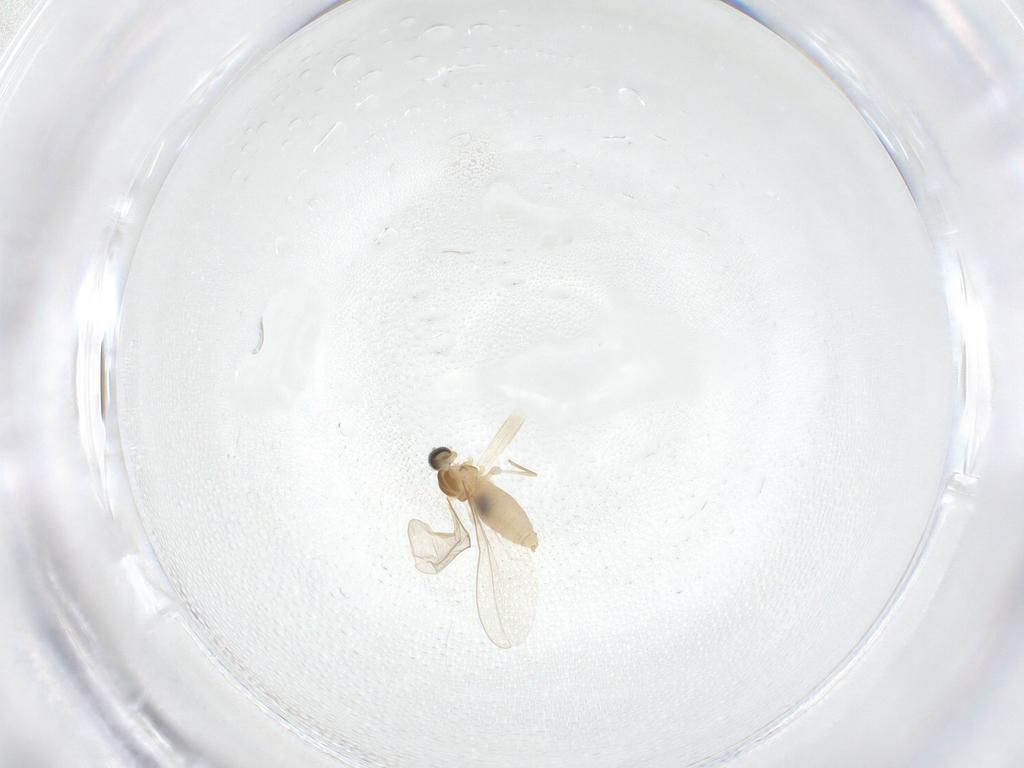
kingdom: Animalia
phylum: Arthropoda
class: Insecta
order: Diptera
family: Cecidomyiidae
